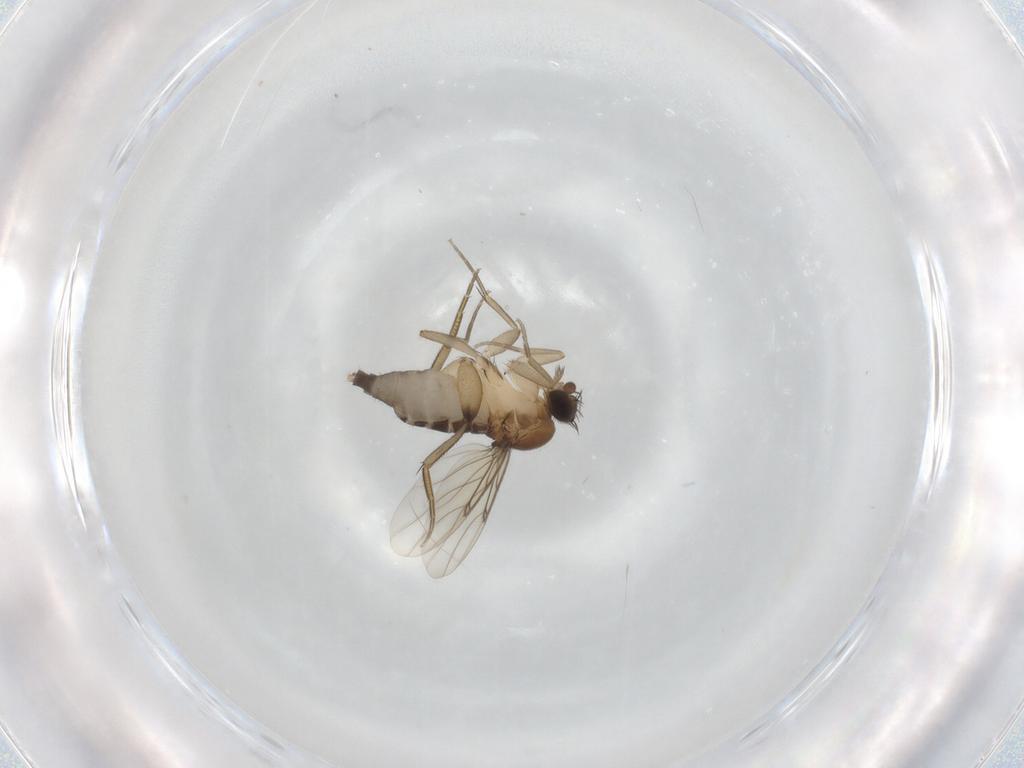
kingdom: Animalia
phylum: Arthropoda
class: Insecta
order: Diptera
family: Phoridae
